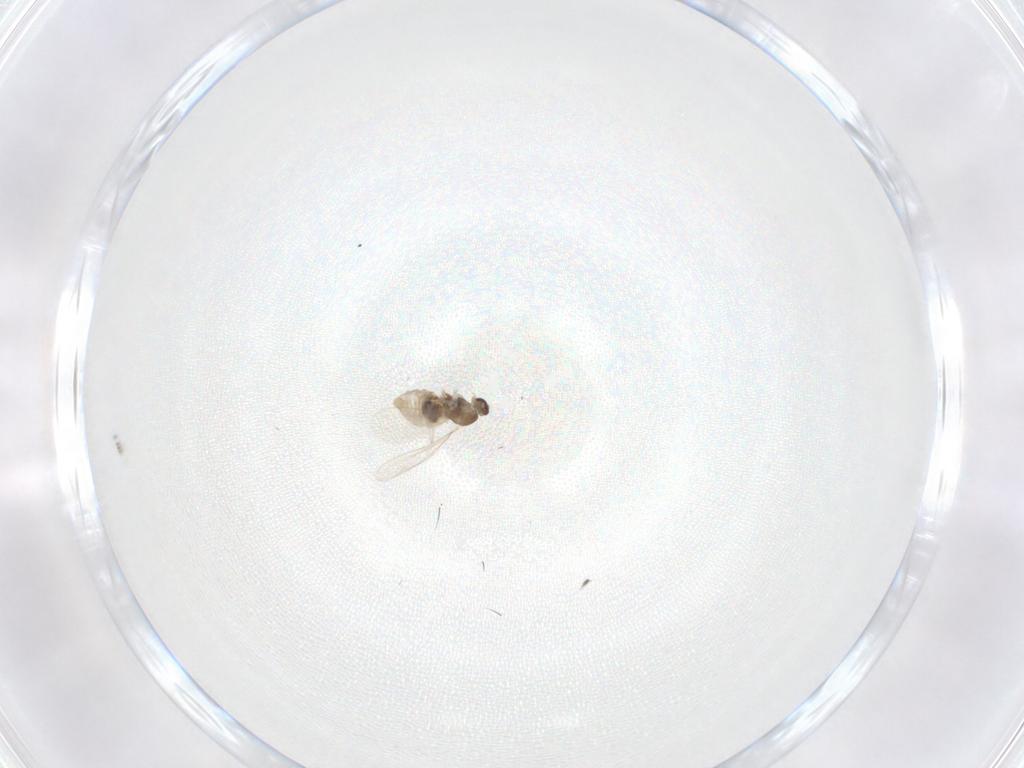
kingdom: Animalia
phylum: Arthropoda
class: Insecta
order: Diptera
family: Cecidomyiidae
